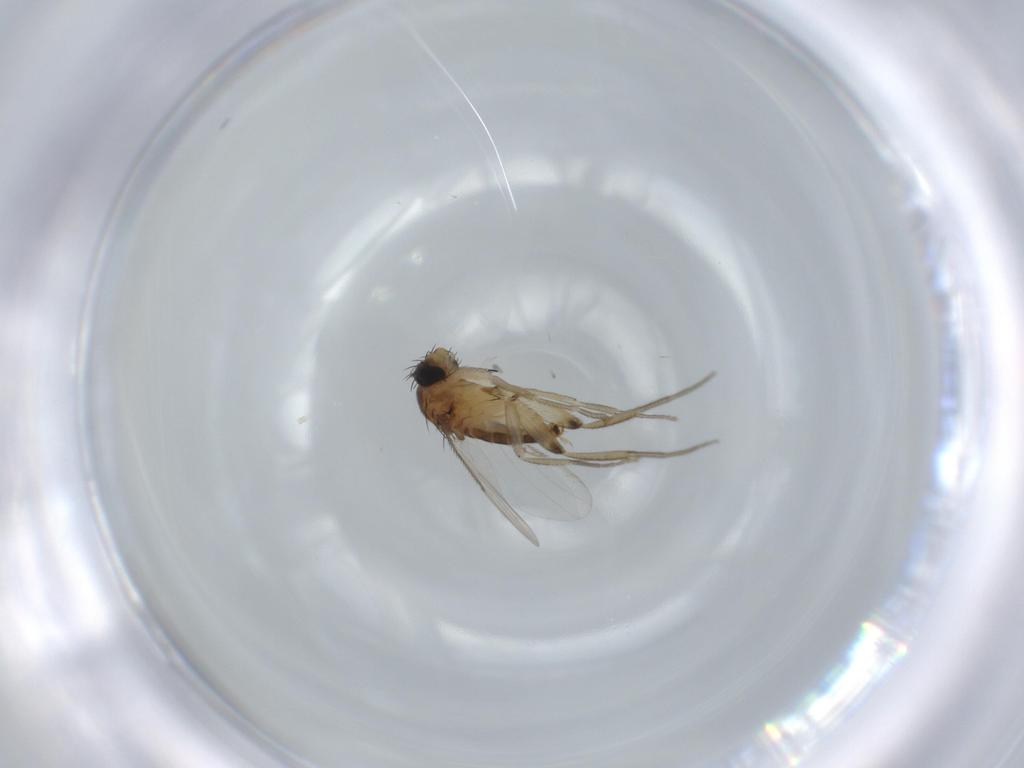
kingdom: Animalia
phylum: Arthropoda
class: Insecta
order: Diptera
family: Phoridae
